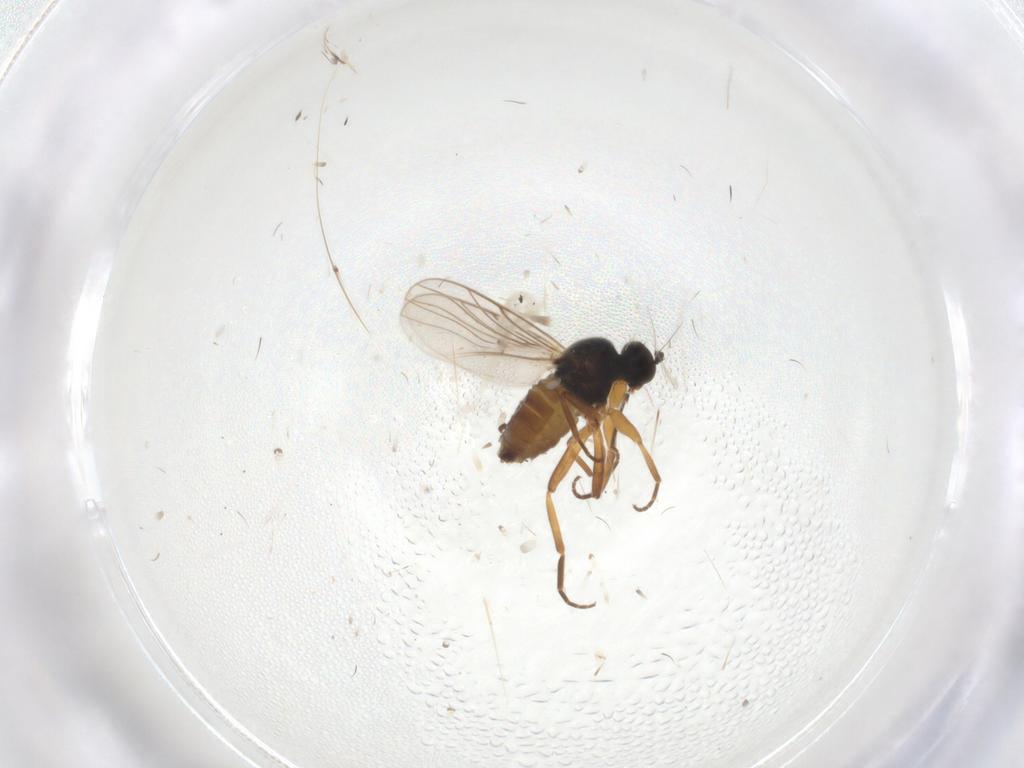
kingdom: Animalia
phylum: Arthropoda
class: Insecta
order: Diptera
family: Hybotidae
